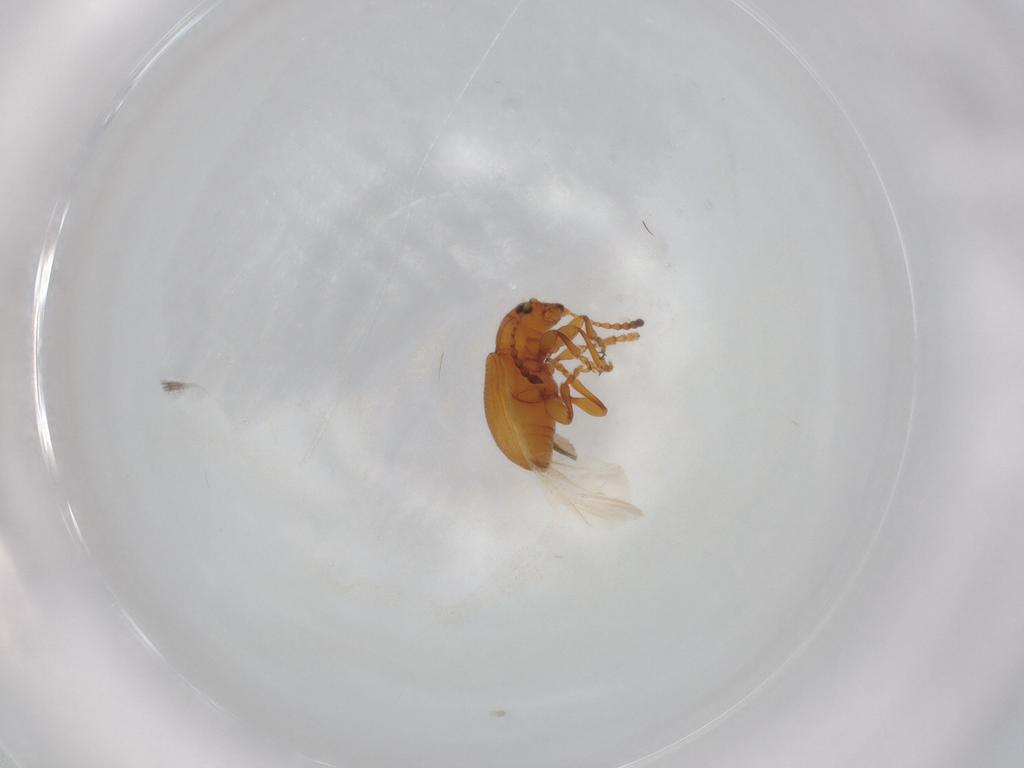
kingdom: Animalia
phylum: Arthropoda
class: Insecta
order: Coleoptera
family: Chrysomelidae
